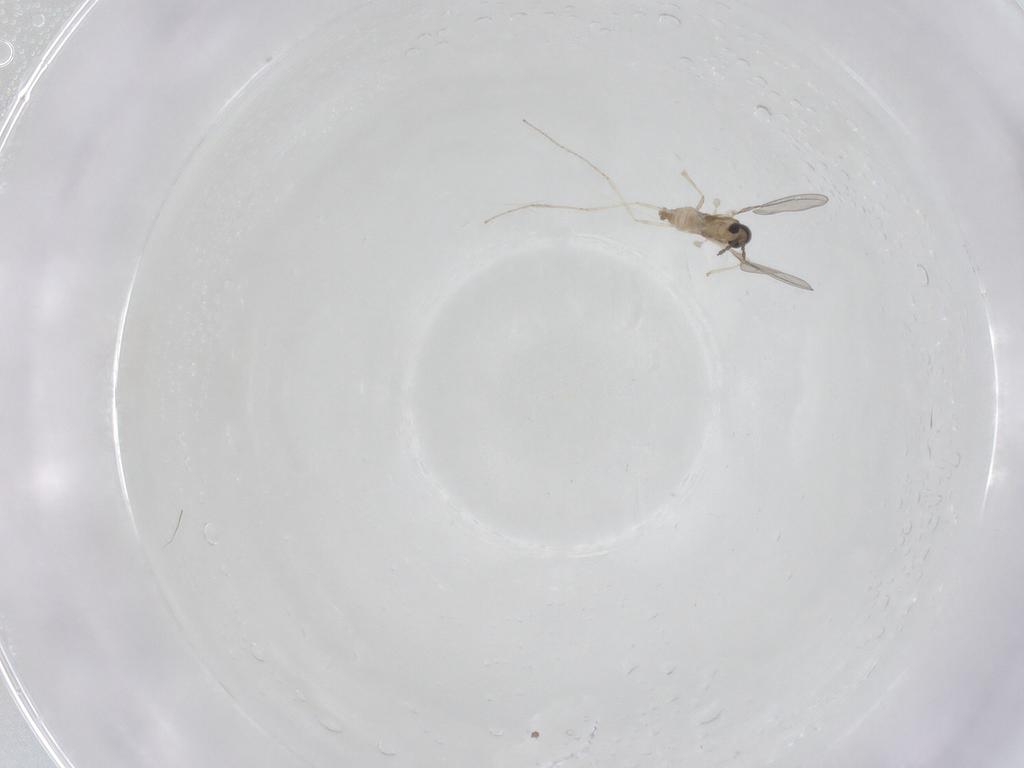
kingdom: Animalia
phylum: Arthropoda
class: Insecta
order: Diptera
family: Cecidomyiidae
